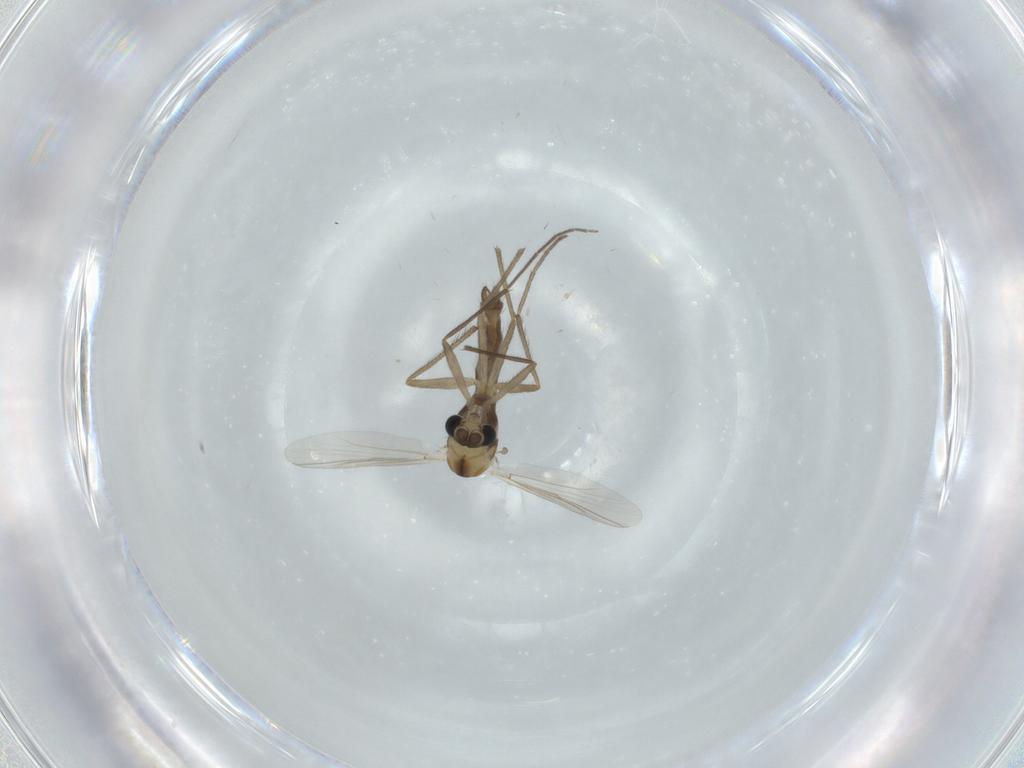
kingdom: Animalia
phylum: Arthropoda
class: Insecta
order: Diptera
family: Chironomidae
